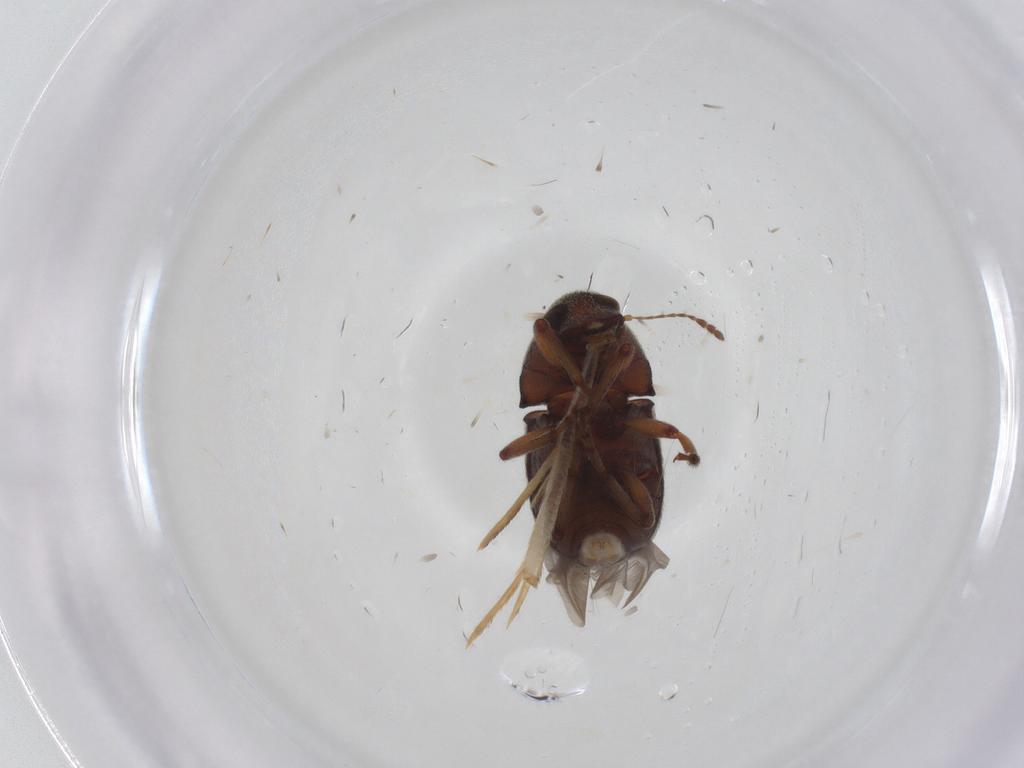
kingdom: Animalia
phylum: Arthropoda
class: Insecta
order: Coleoptera
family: Anthribidae
